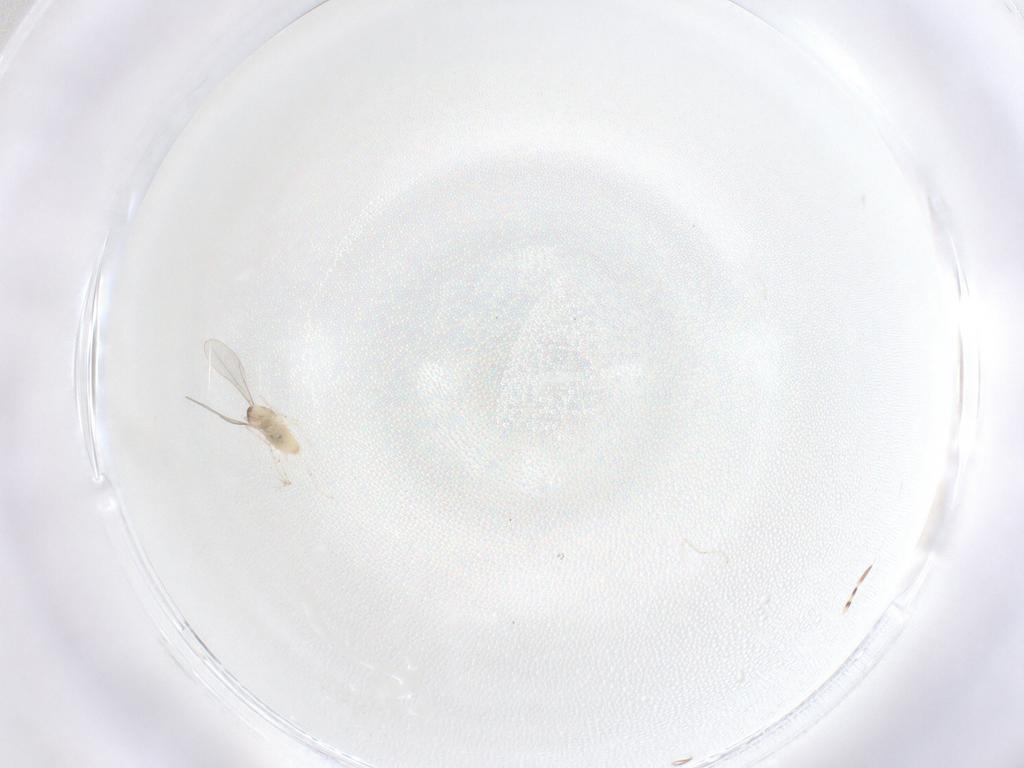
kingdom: Animalia
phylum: Arthropoda
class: Insecta
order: Diptera
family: Cecidomyiidae
